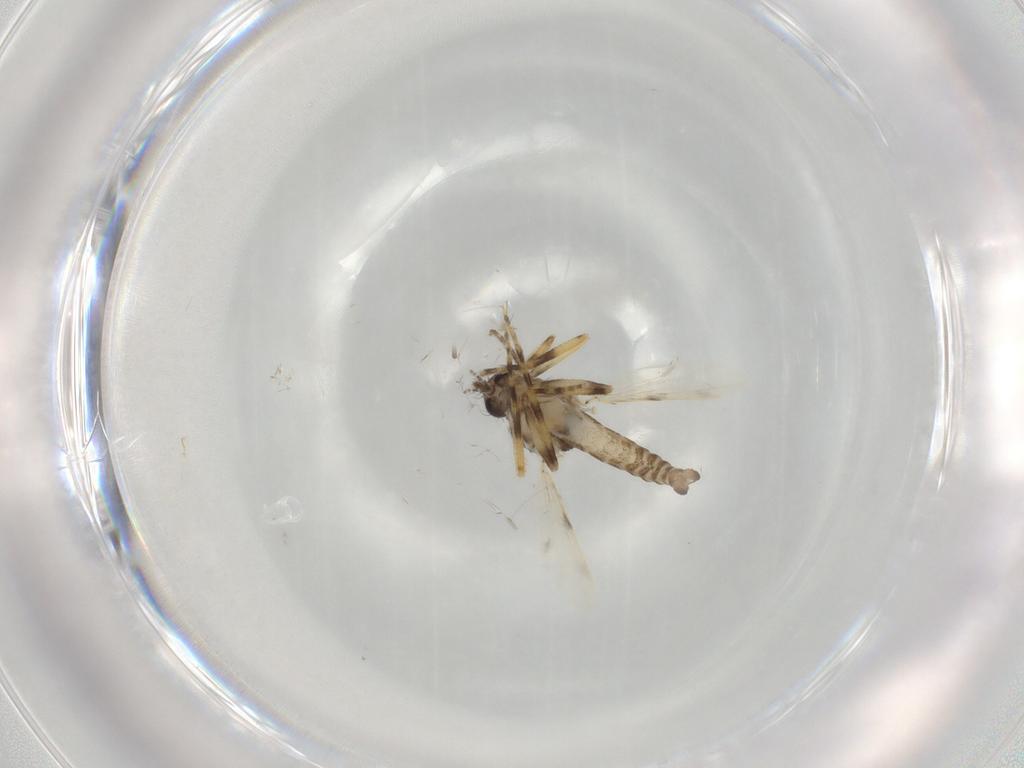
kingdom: Animalia
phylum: Arthropoda
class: Insecta
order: Diptera
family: Ceratopogonidae
